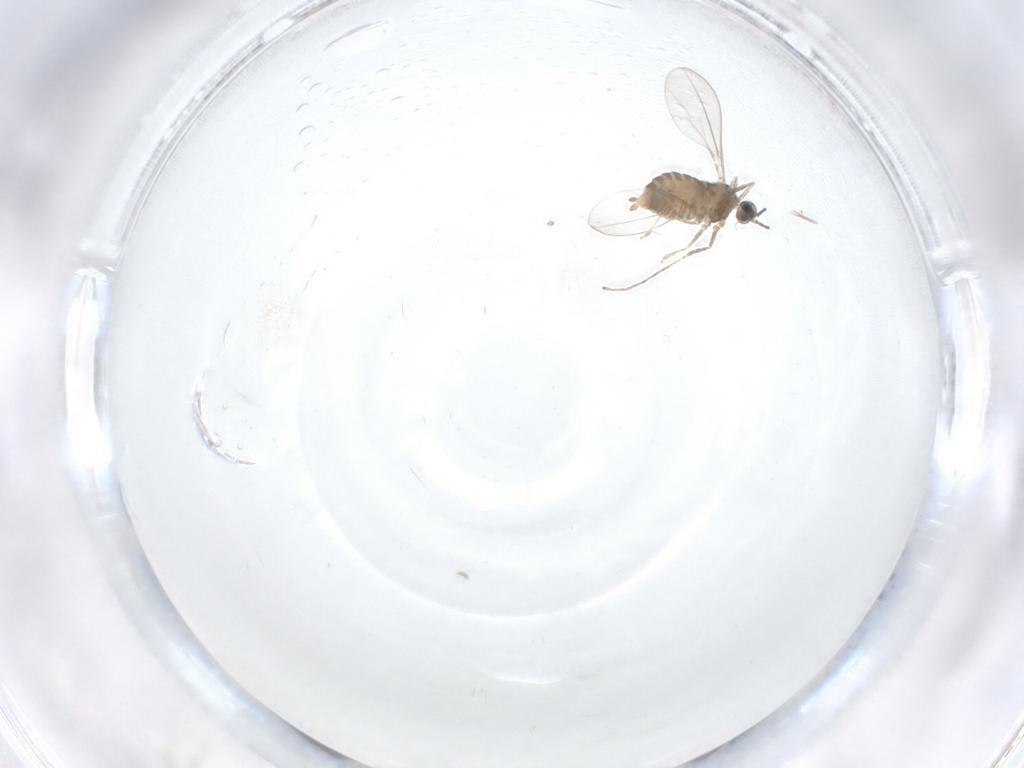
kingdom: Animalia
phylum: Arthropoda
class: Insecta
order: Diptera
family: Cecidomyiidae
